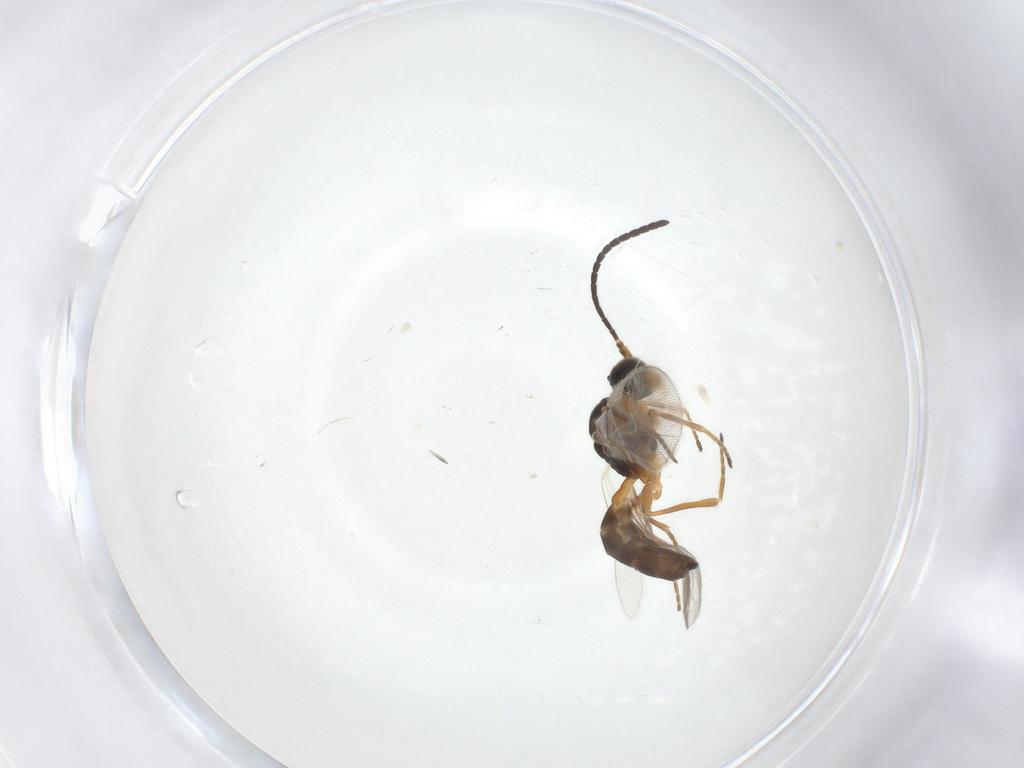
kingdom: Animalia
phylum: Arthropoda
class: Insecta
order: Hymenoptera
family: Braconidae
